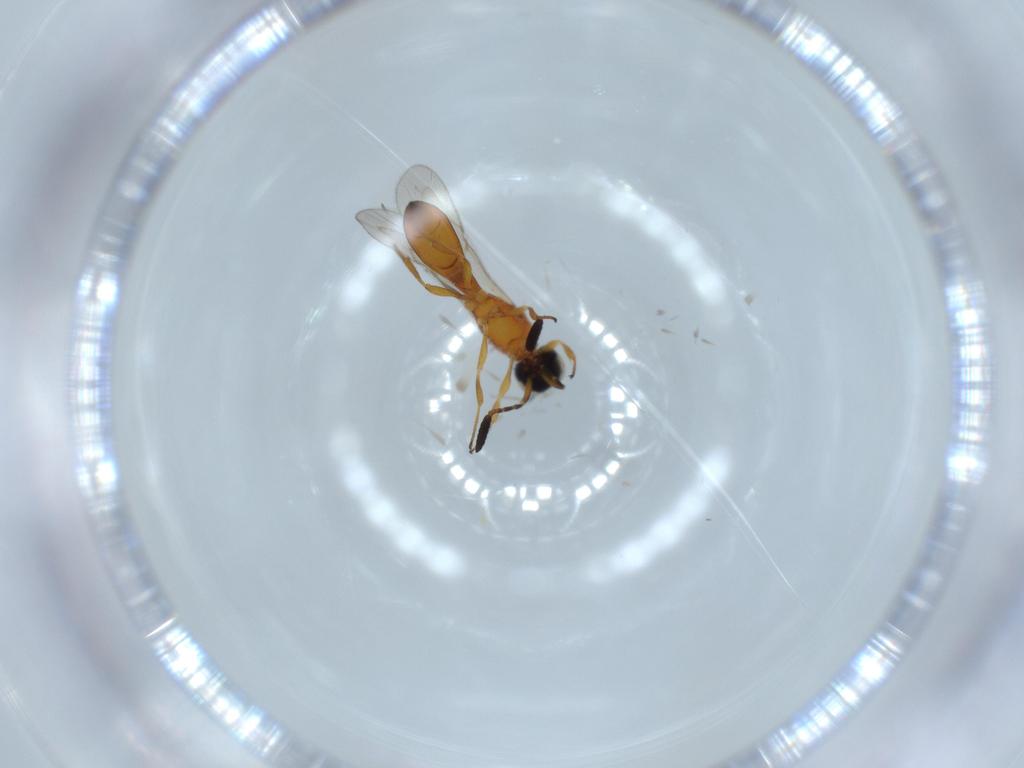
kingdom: Animalia
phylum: Arthropoda
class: Insecta
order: Hymenoptera
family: Scelionidae
